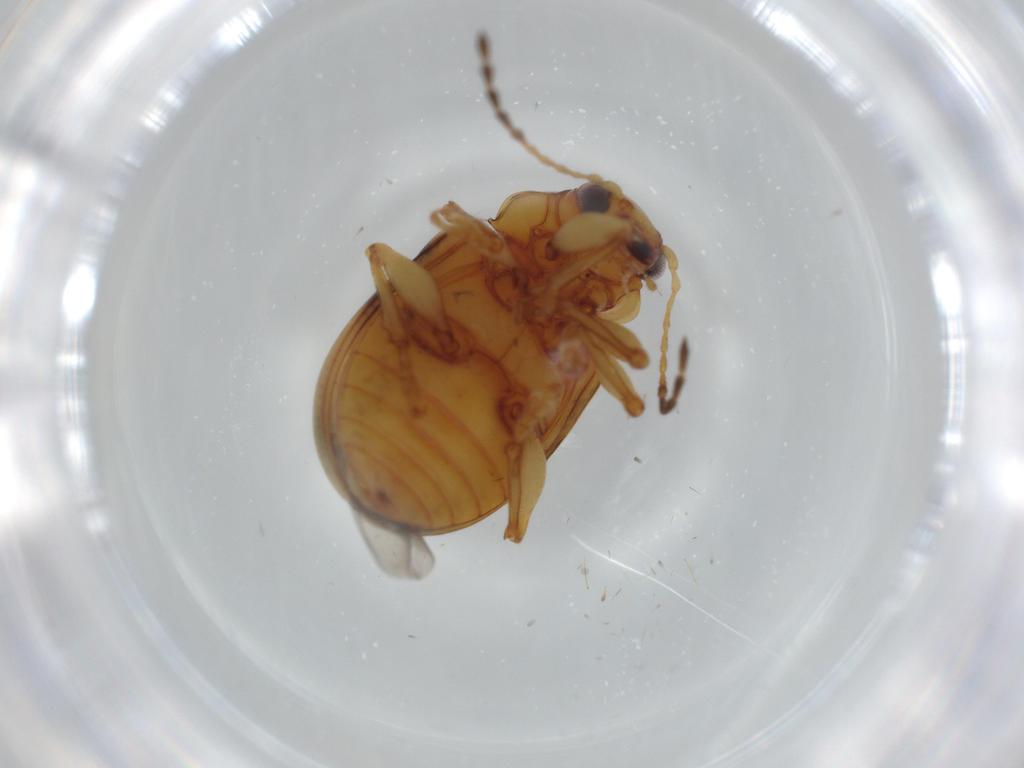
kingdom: Animalia
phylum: Arthropoda
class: Insecta
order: Coleoptera
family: Chrysomelidae
